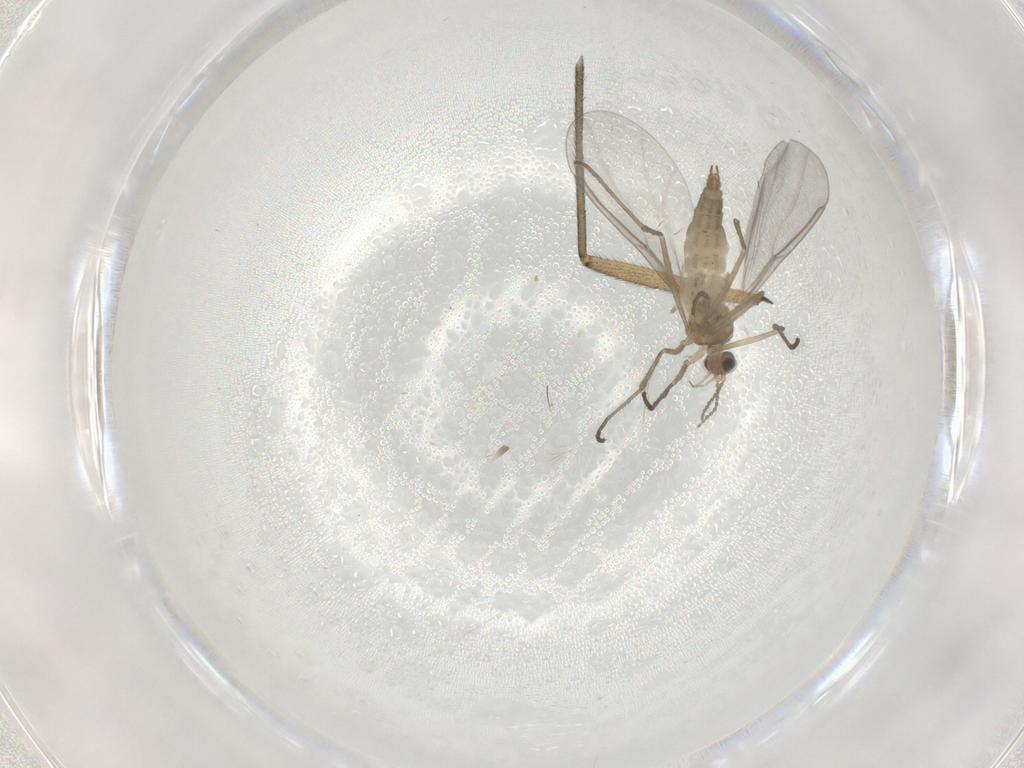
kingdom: Animalia
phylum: Arthropoda
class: Insecta
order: Diptera
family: Cecidomyiidae
